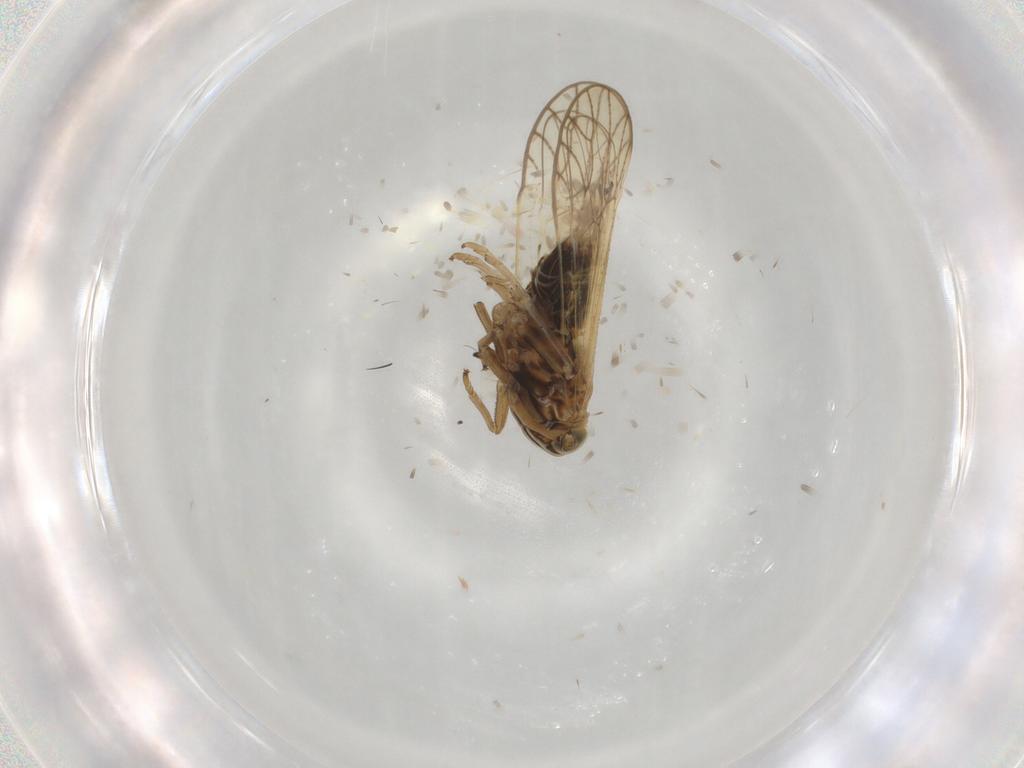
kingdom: Animalia
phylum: Arthropoda
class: Insecta
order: Hemiptera
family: Delphacidae
